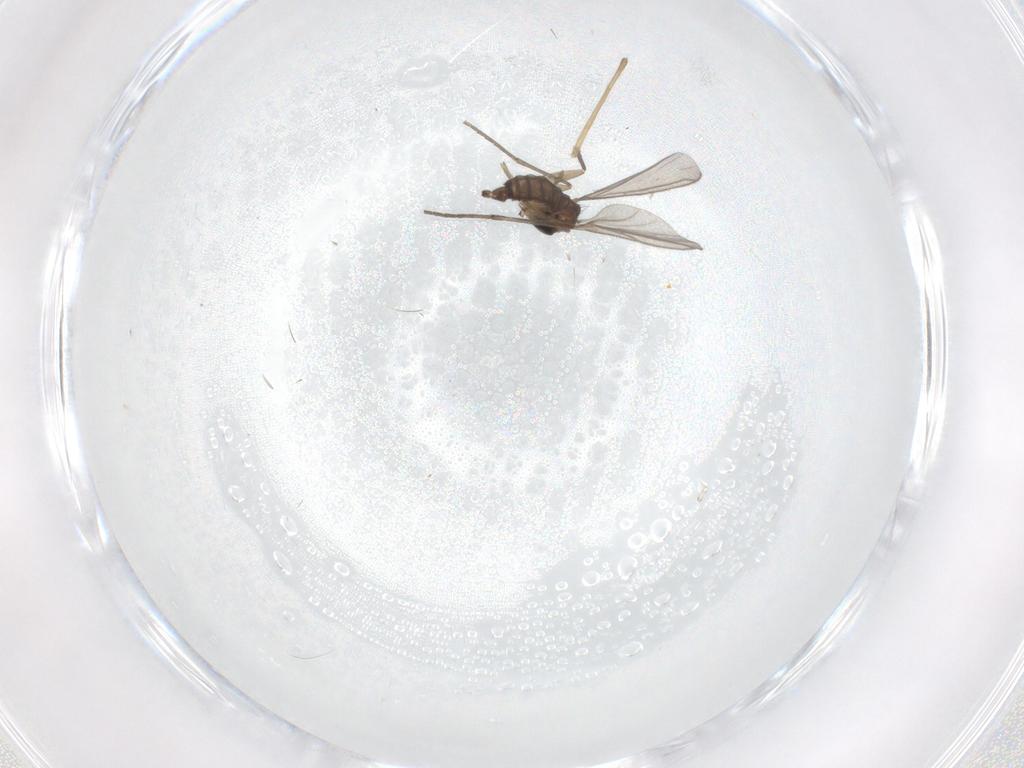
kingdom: Animalia
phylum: Arthropoda
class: Insecta
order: Diptera
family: Sciaridae
